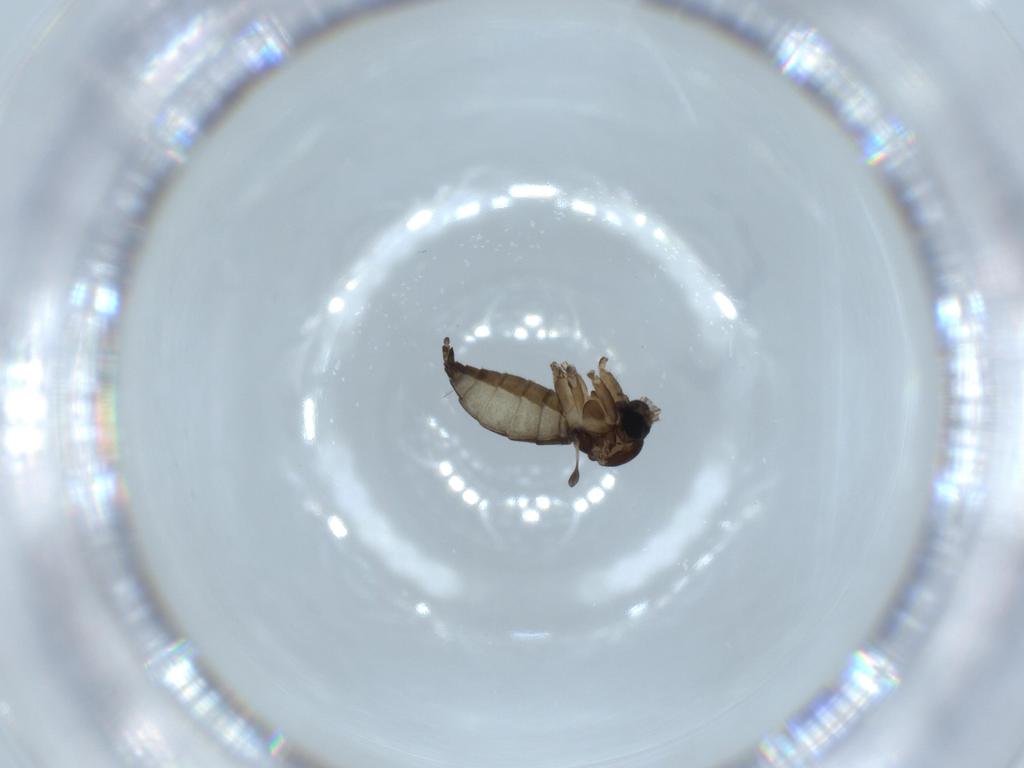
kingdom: Animalia
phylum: Arthropoda
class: Insecta
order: Diptera
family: Sciaridae
